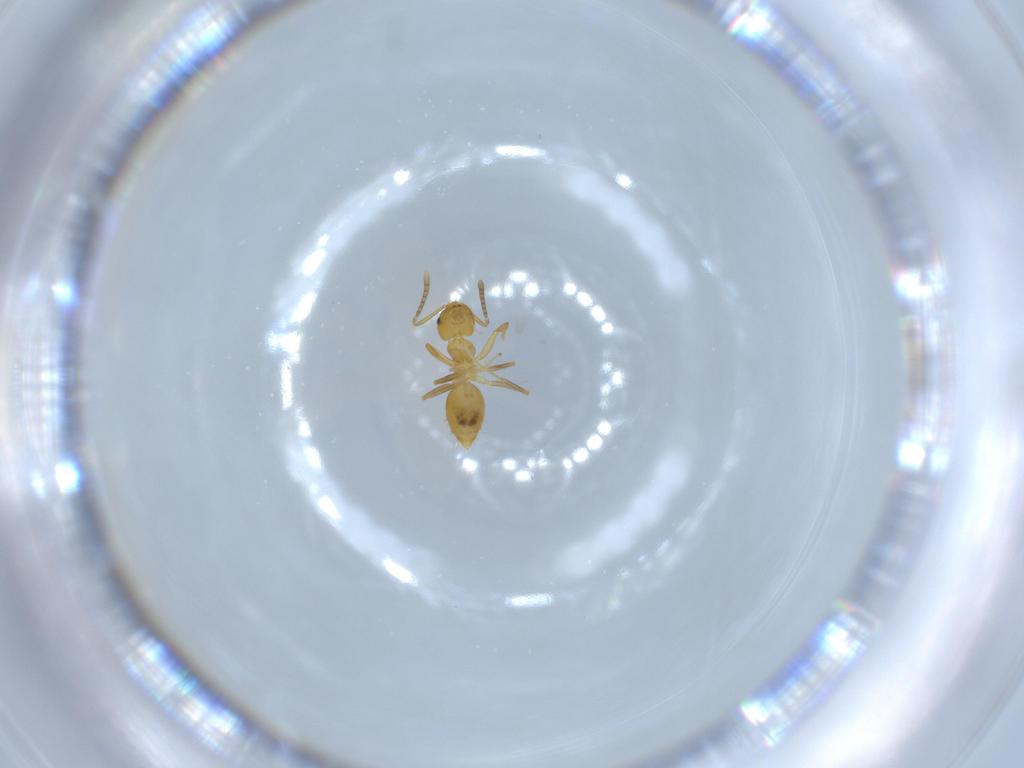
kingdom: Animalia
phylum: Arthropoda
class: Insecta
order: Hymenoptera
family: Formicidae
